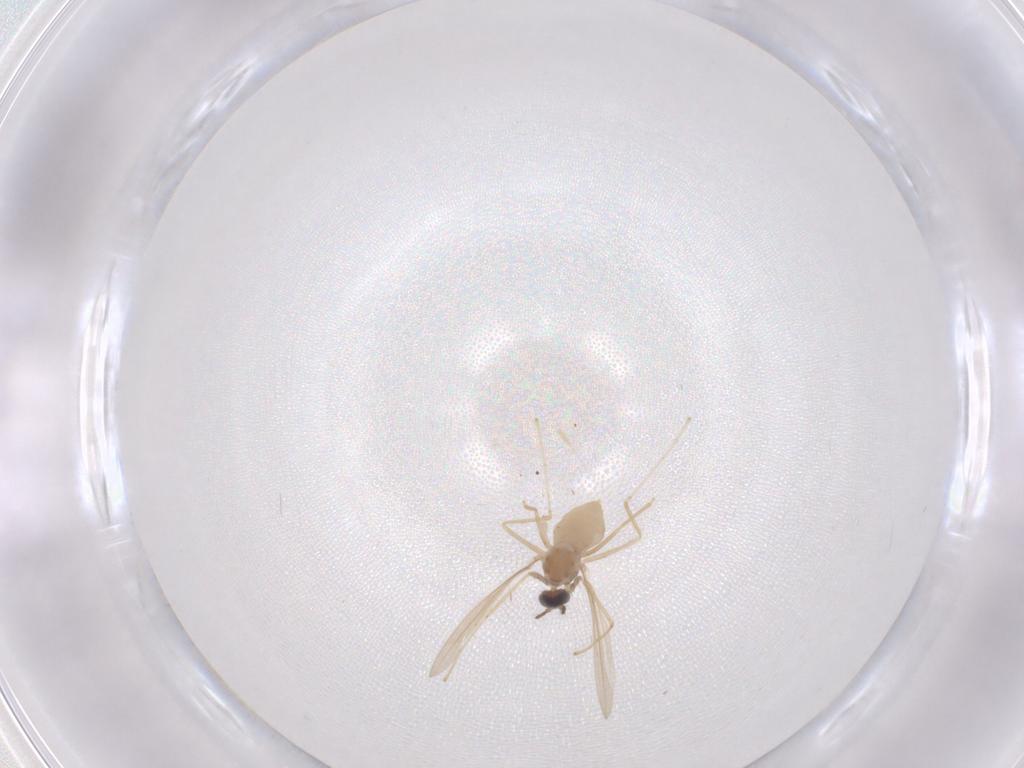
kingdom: Animalia
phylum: Arthropoda
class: Insecta
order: Diptera
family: Cecidomyiidae
